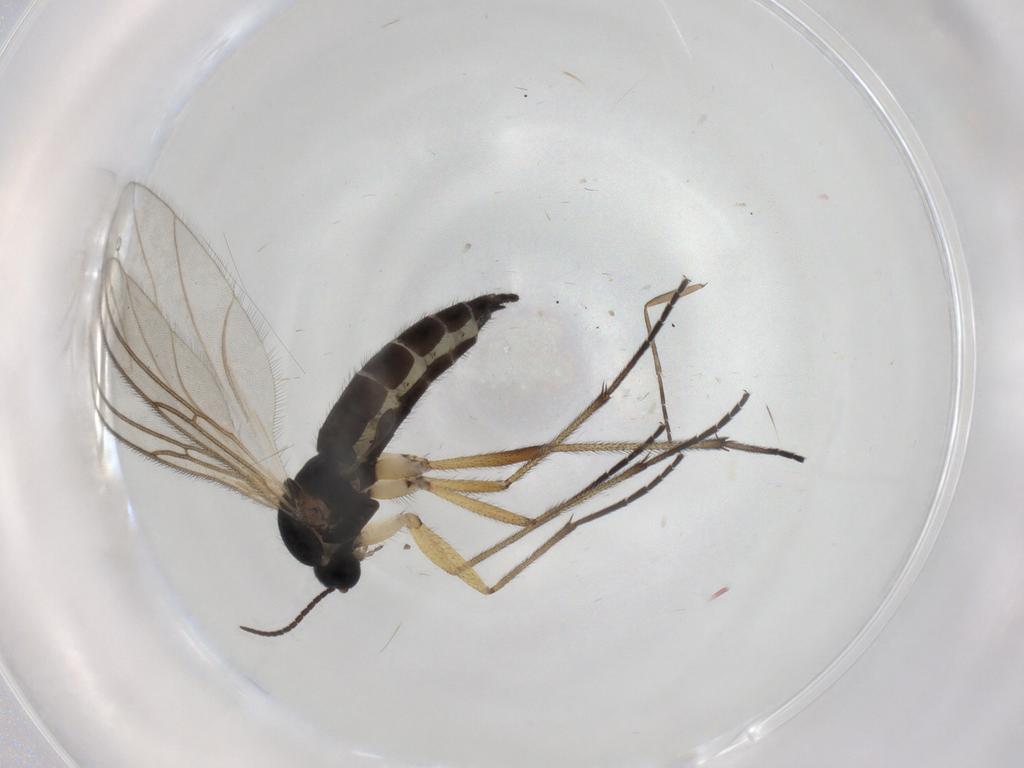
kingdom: Animalia
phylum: Arthropoda
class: Insecta
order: Diptera
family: Sciaridae
